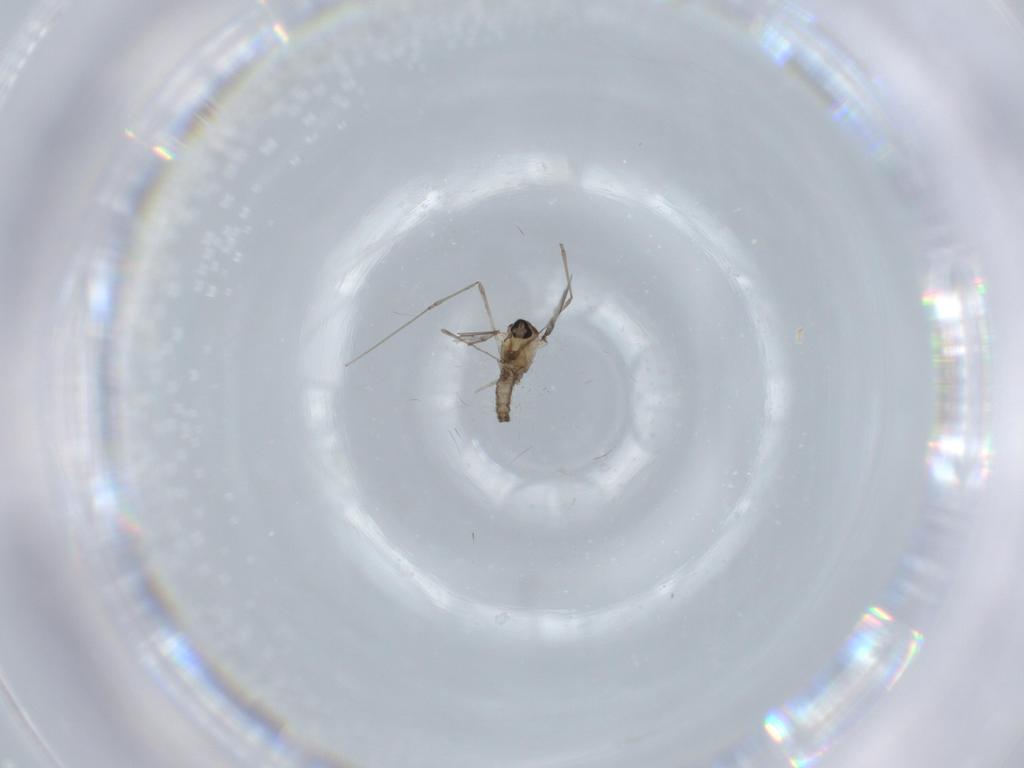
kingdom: Animalia
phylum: Arthropoda
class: Insecta
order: Diptera
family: Cecidomyiidae
